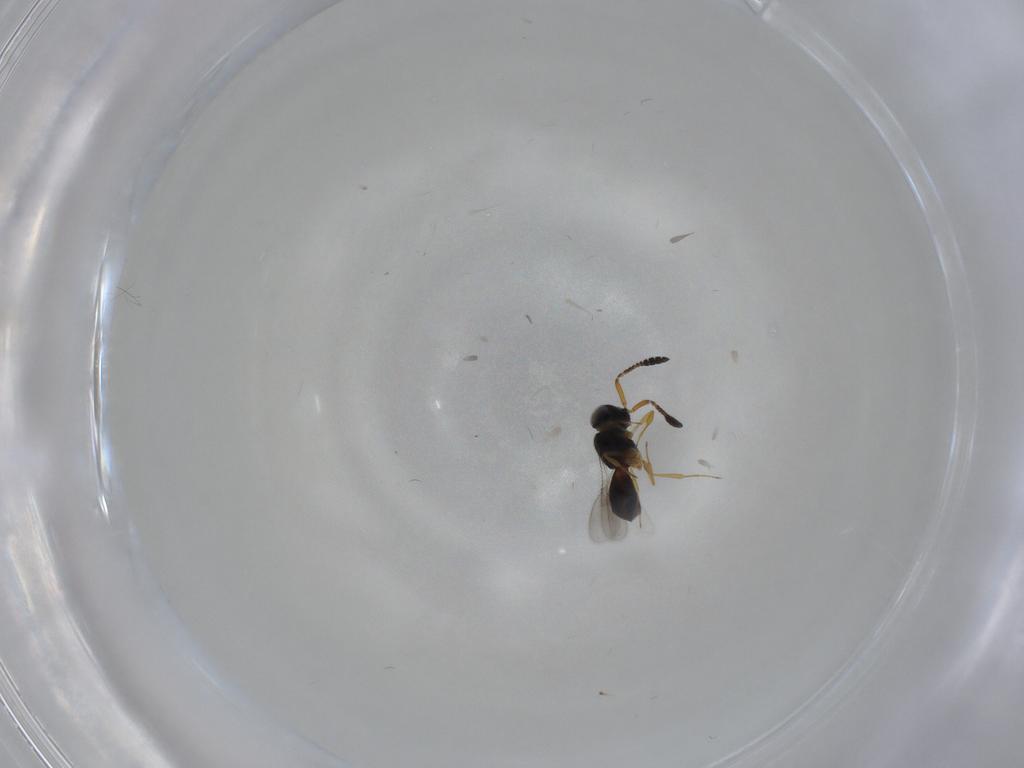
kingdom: Animalia
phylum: Arthropoda
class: Insecta
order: Hymenoptera
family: Scelionidae
